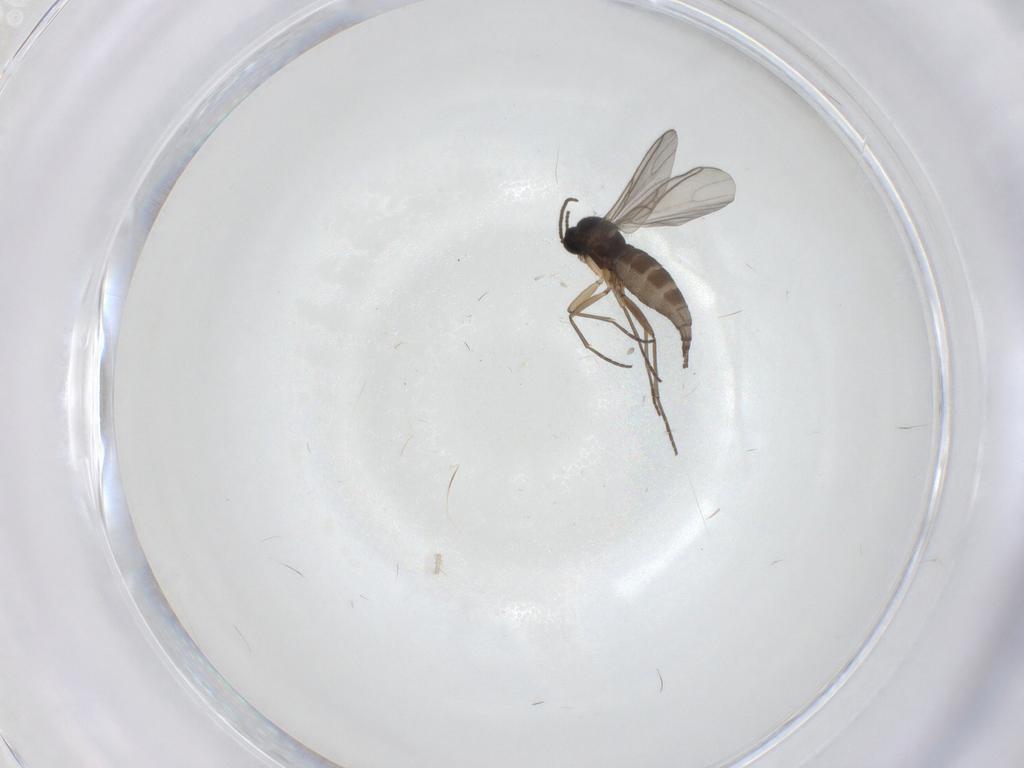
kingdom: Animalia
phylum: Arthropoda
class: Insecta
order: Diptera
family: Sciaridae
